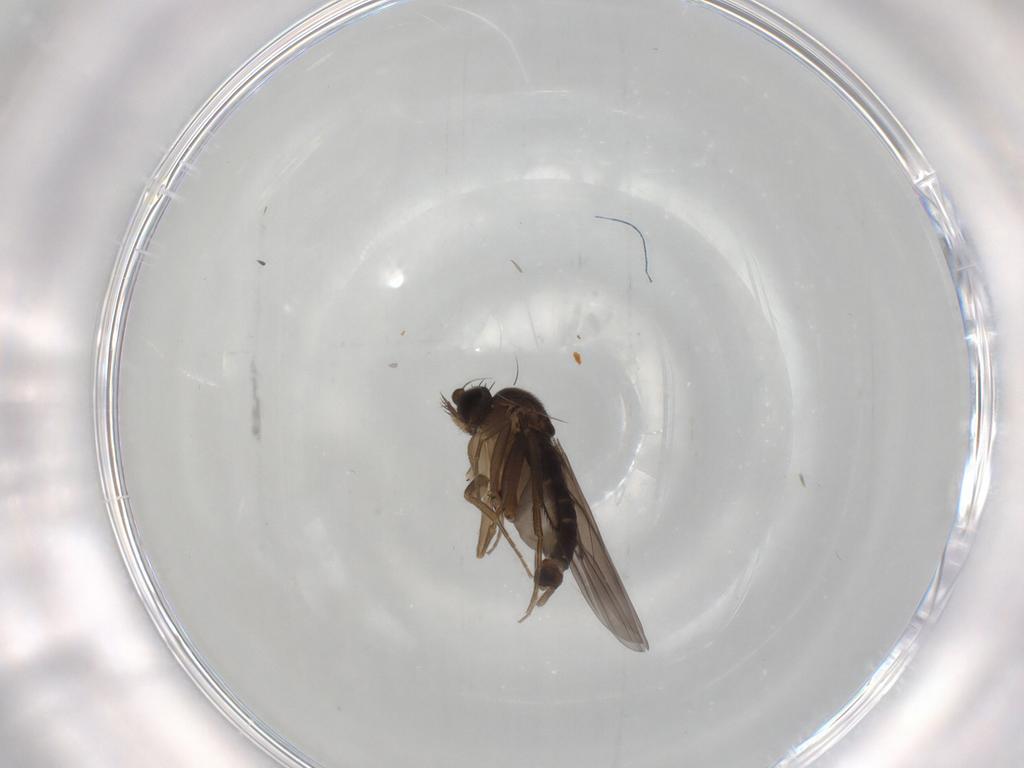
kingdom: Animalia
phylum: Arthropoda
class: Insecta
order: Diptera
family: Phoridae
